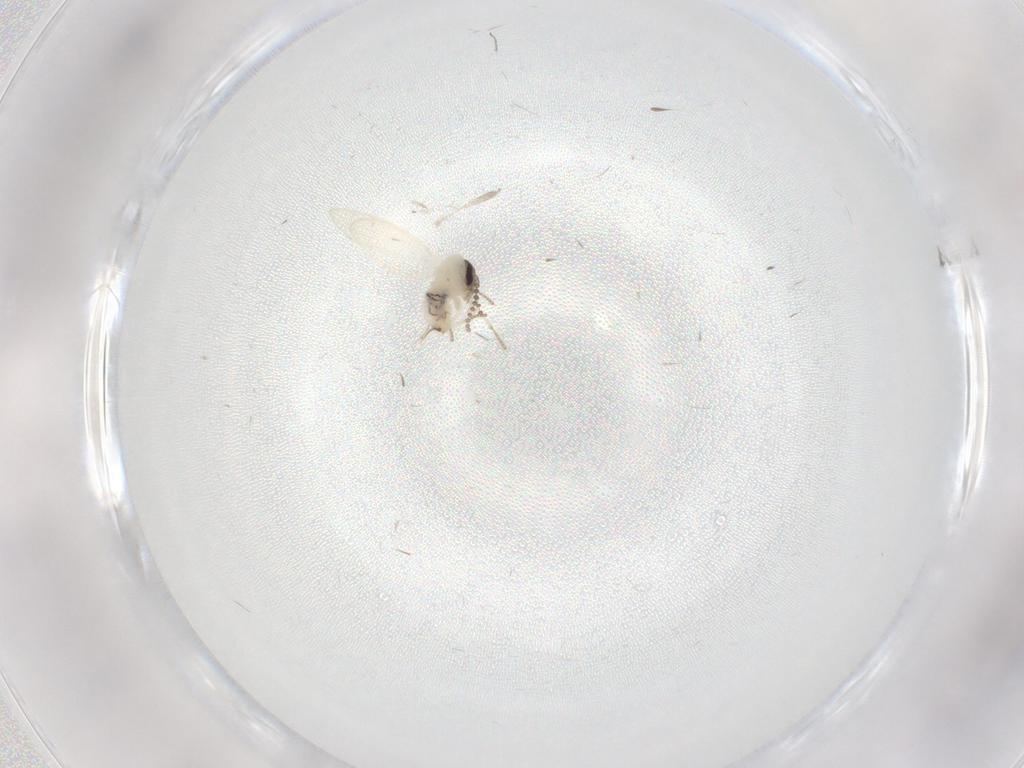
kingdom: Animalia
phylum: Arthropoda
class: Insecta
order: Diptera
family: Psychodidae
